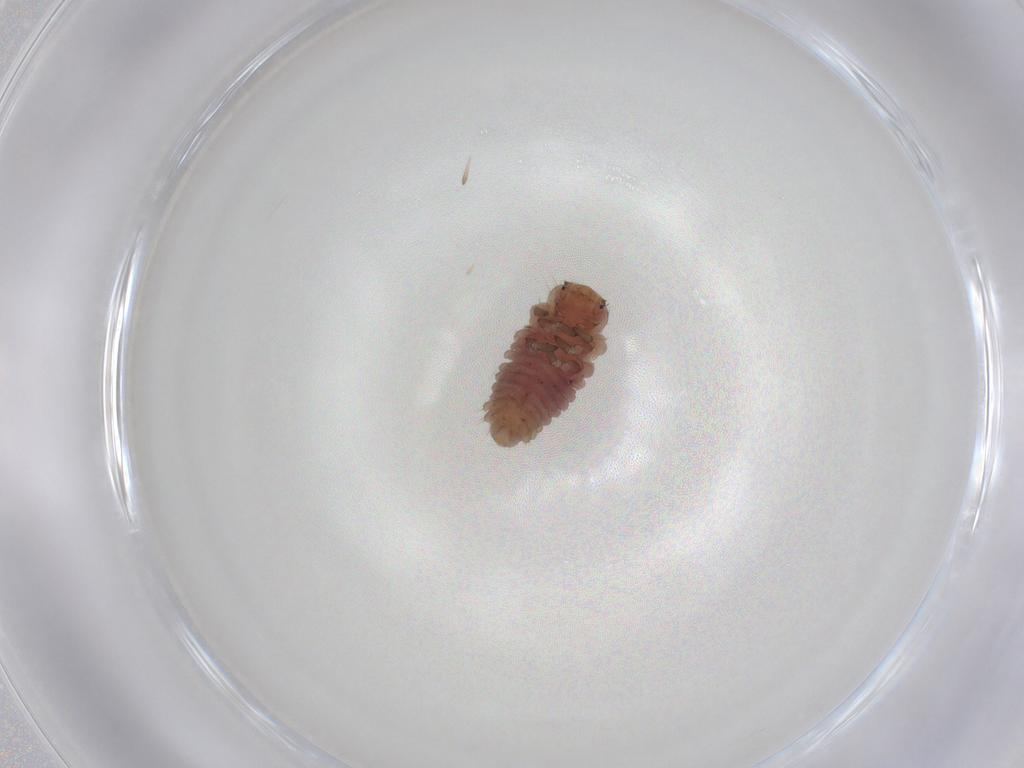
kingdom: Animalia
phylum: Arthropoda
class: Insecta
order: Coleoptera
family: Coccinellidae
